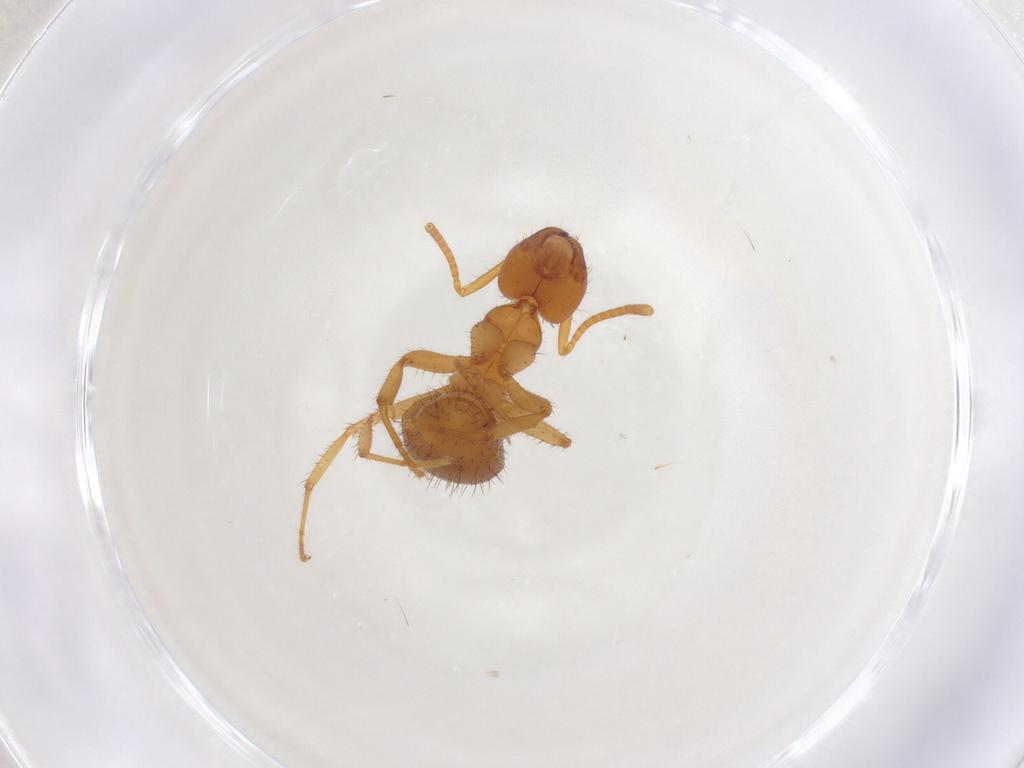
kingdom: Animalia
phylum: Arthropoda
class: Insecta
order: Hymenoptera
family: Formicidae
